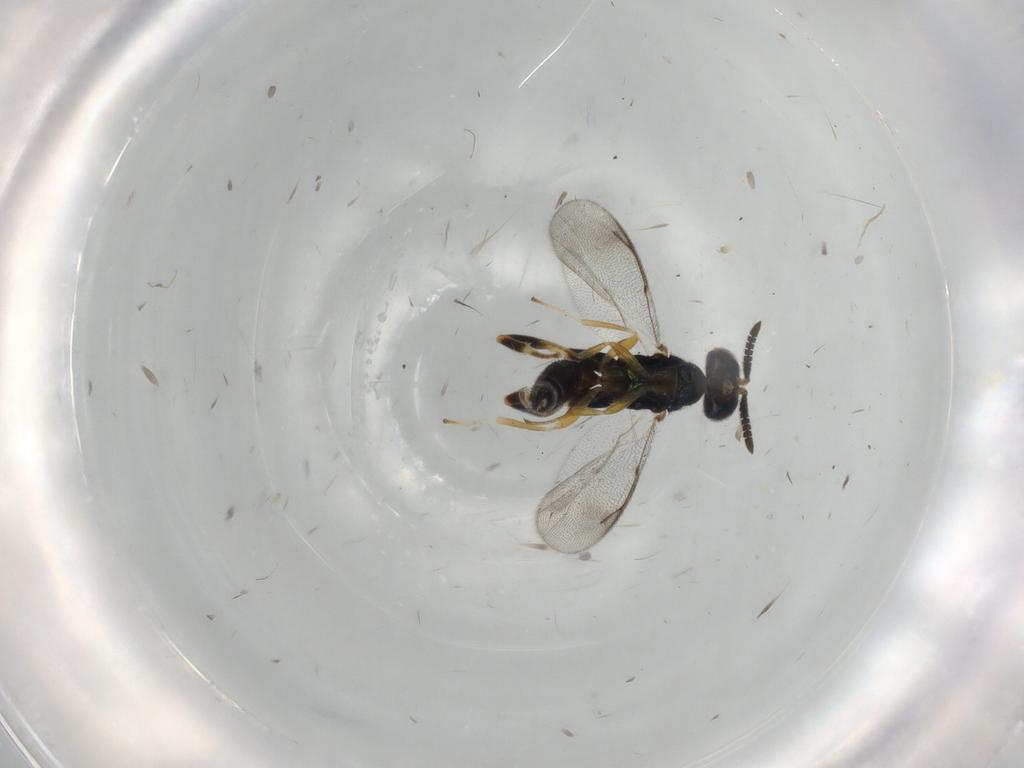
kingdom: Animalia
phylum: Arthropoda
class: Insecta
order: Hymenoptera
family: Cleonyminae
